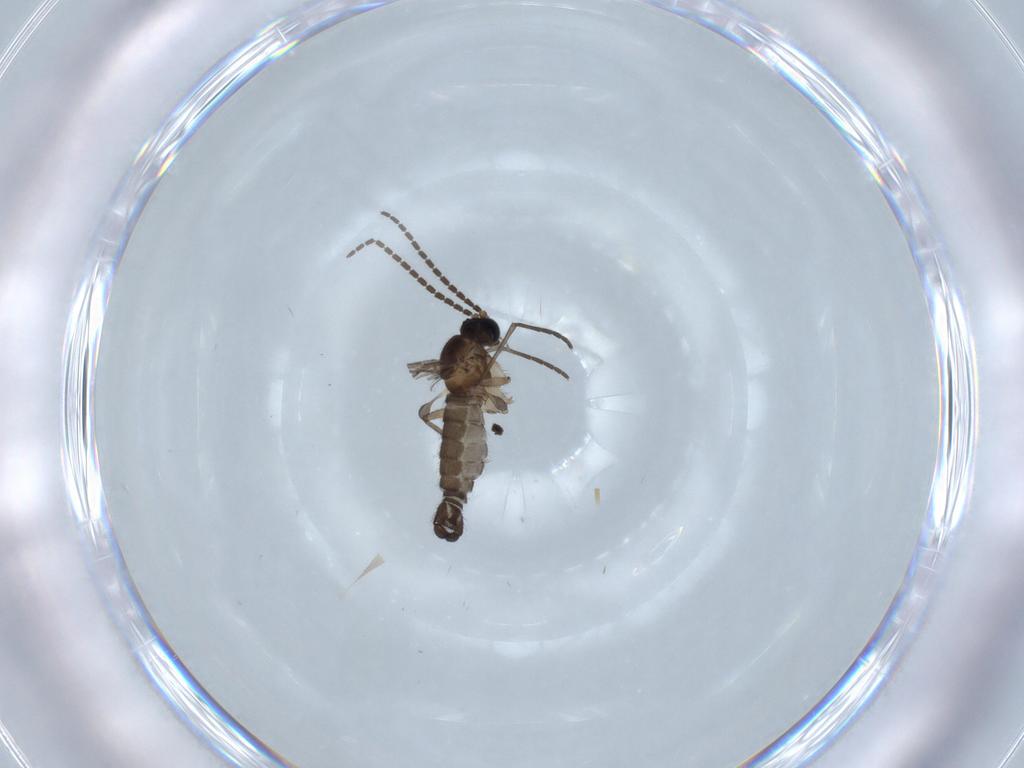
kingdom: Animalia
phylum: Arthropoda
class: Insecta
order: Diptera
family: Sciaridae
